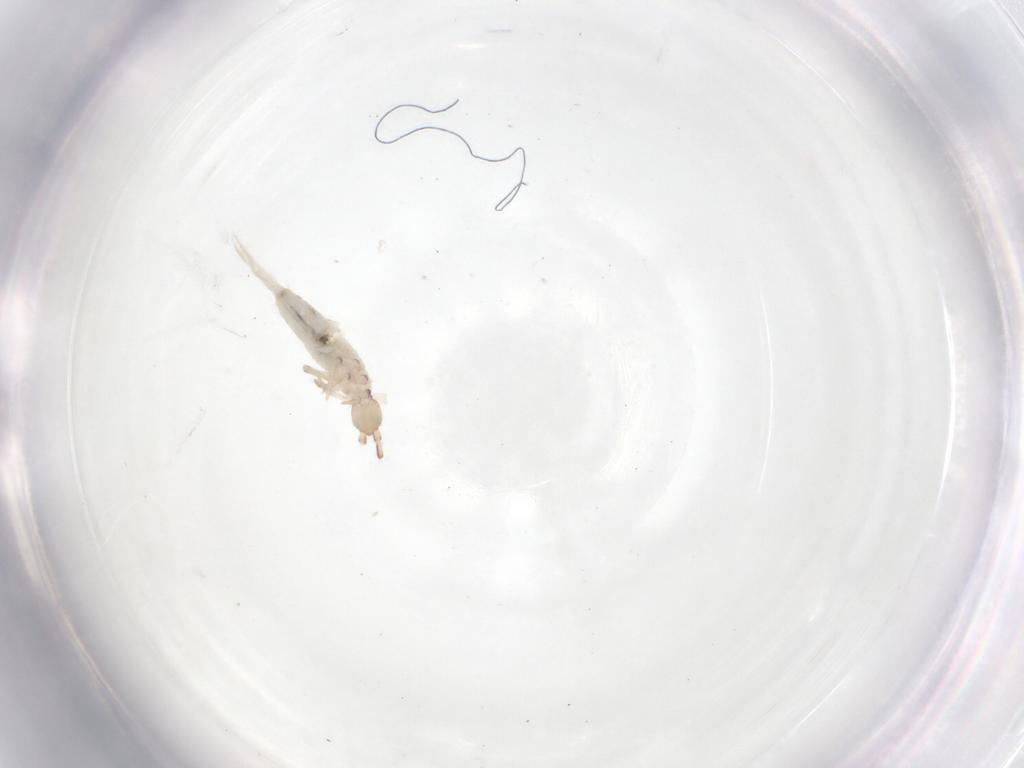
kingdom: Animalia
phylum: Arthropoda
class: Collembola
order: Entomobryomorpha
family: Entomobryidae
